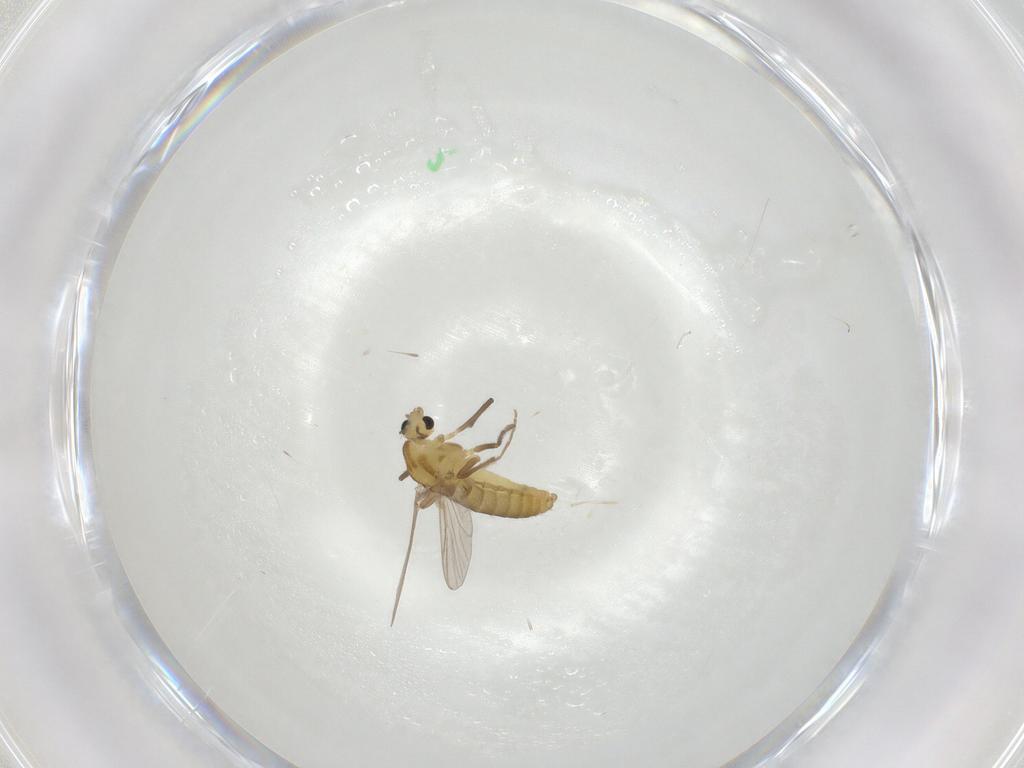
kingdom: Animalia
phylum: Arthropoda
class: Insecta
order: Diptera
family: Chironomidae
